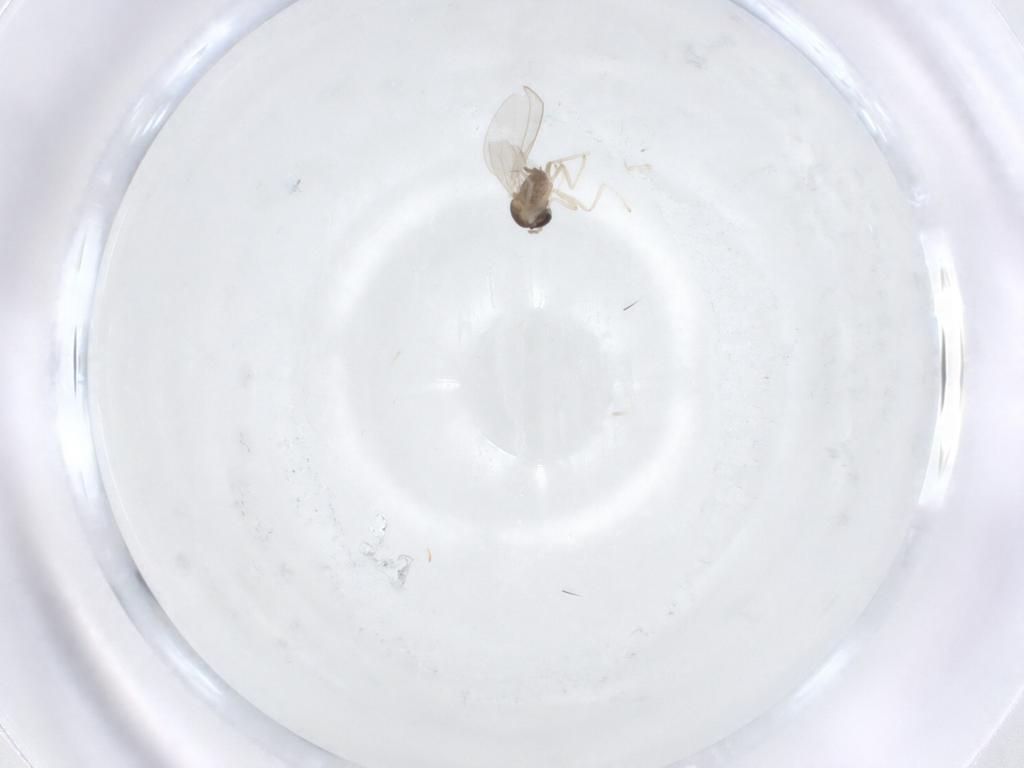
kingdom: Animalia
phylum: Arthropoda
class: Insecta
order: Diptera
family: Cecidomyiidae
